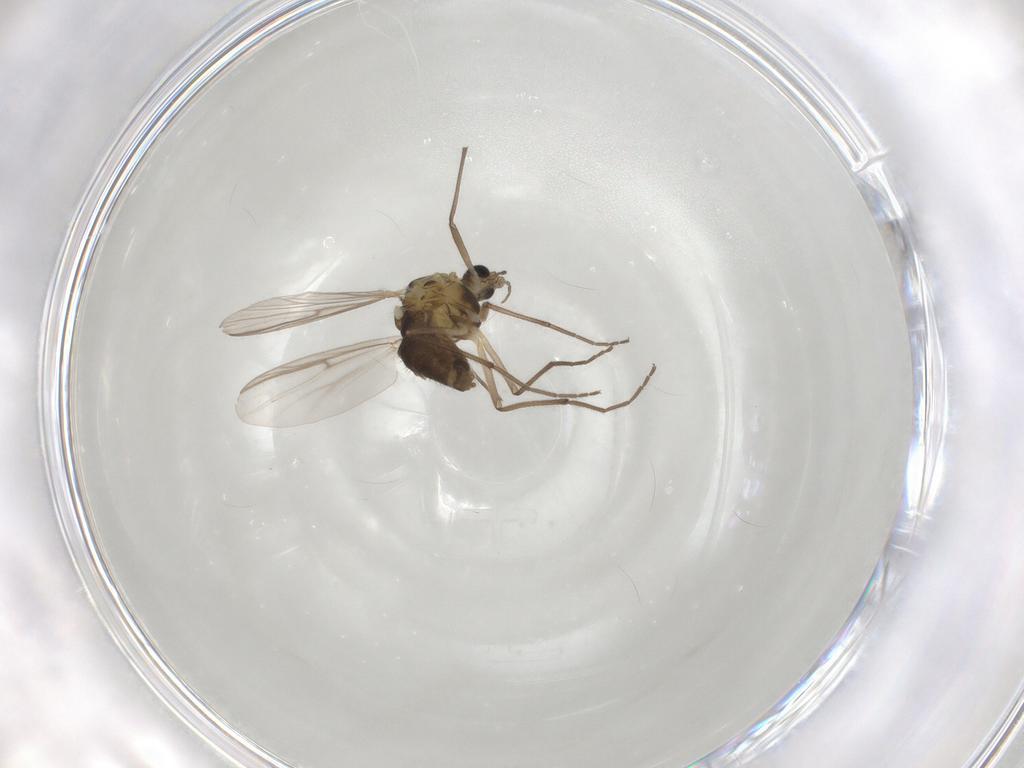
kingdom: Animalia
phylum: Arthropoda
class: Insecta
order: Diptera
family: Chironomidae
